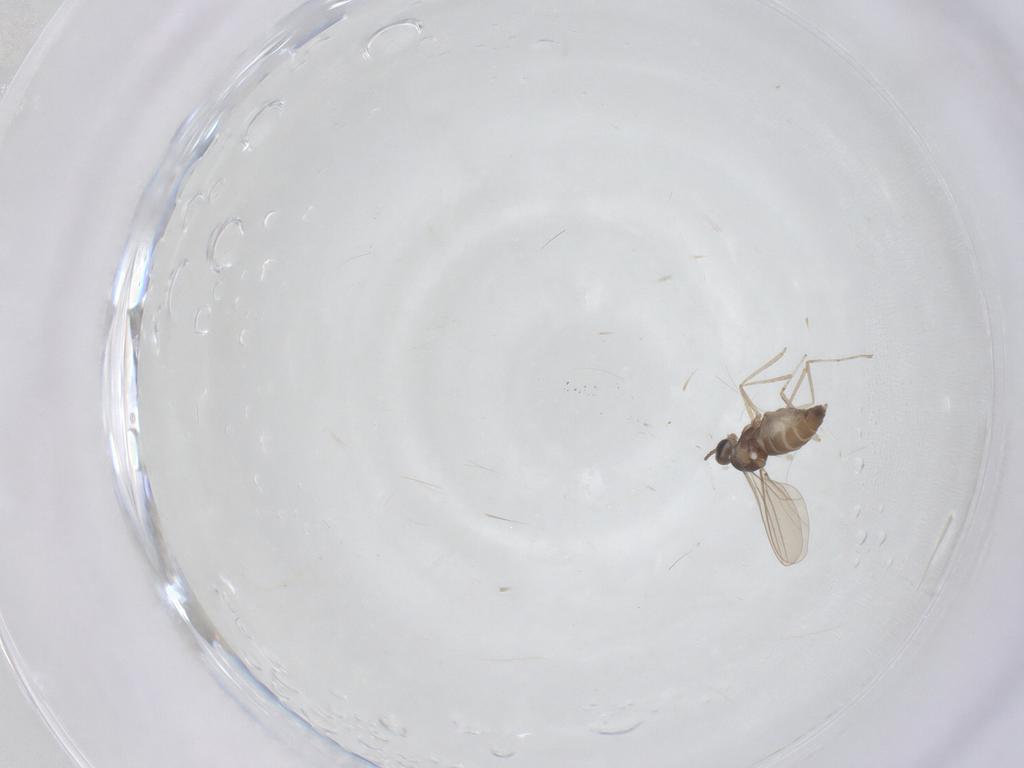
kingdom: Animalia
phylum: Arthropoda
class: Insecta
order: Diptera
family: Cecidomyiidae
